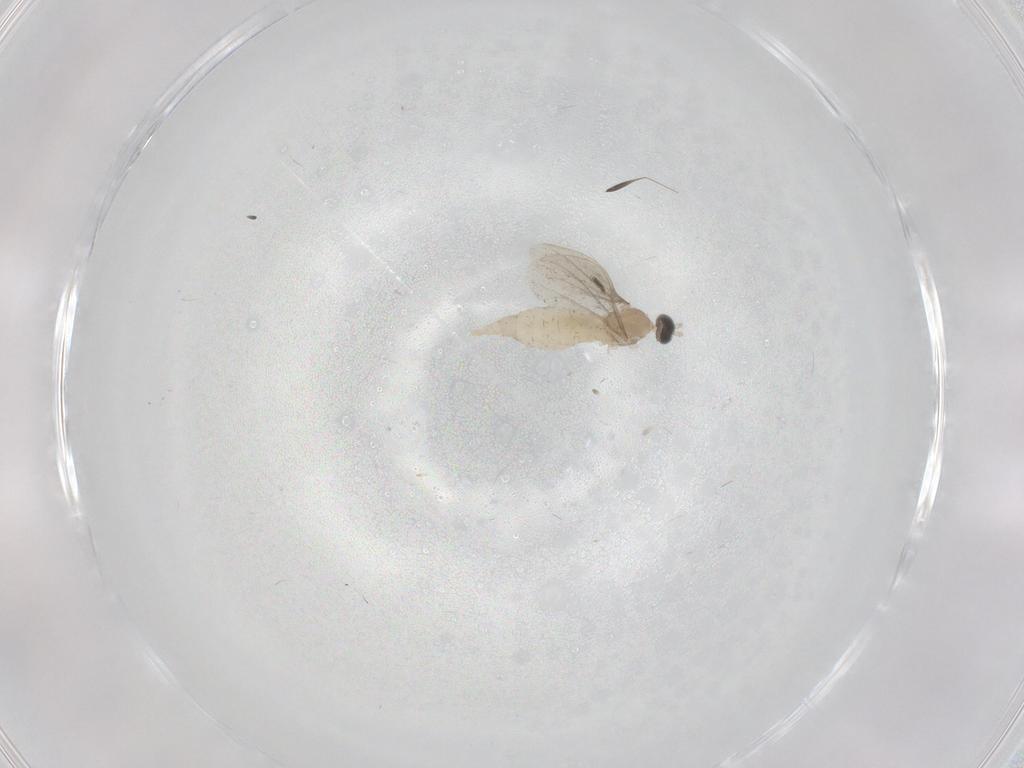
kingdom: Animalia
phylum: Arthropoda
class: Insecta
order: Diptera
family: Cecidomyiidae
